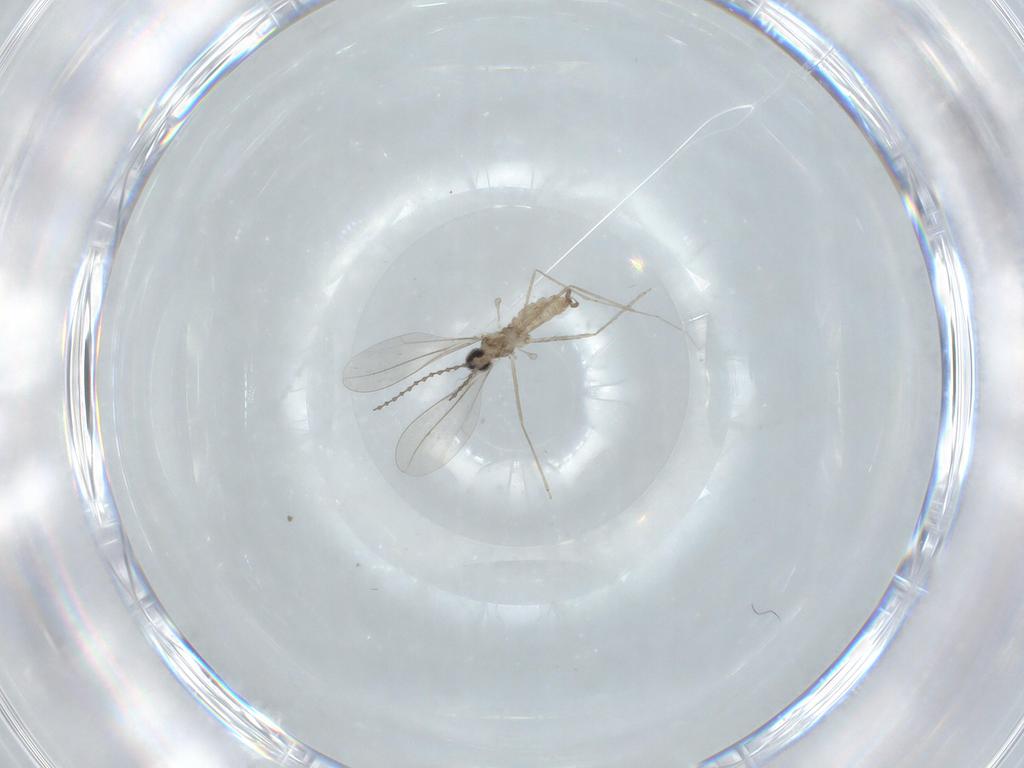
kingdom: Animalia
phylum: Arthropoda
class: Insecta
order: Diptera
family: Cecidomyiidae
